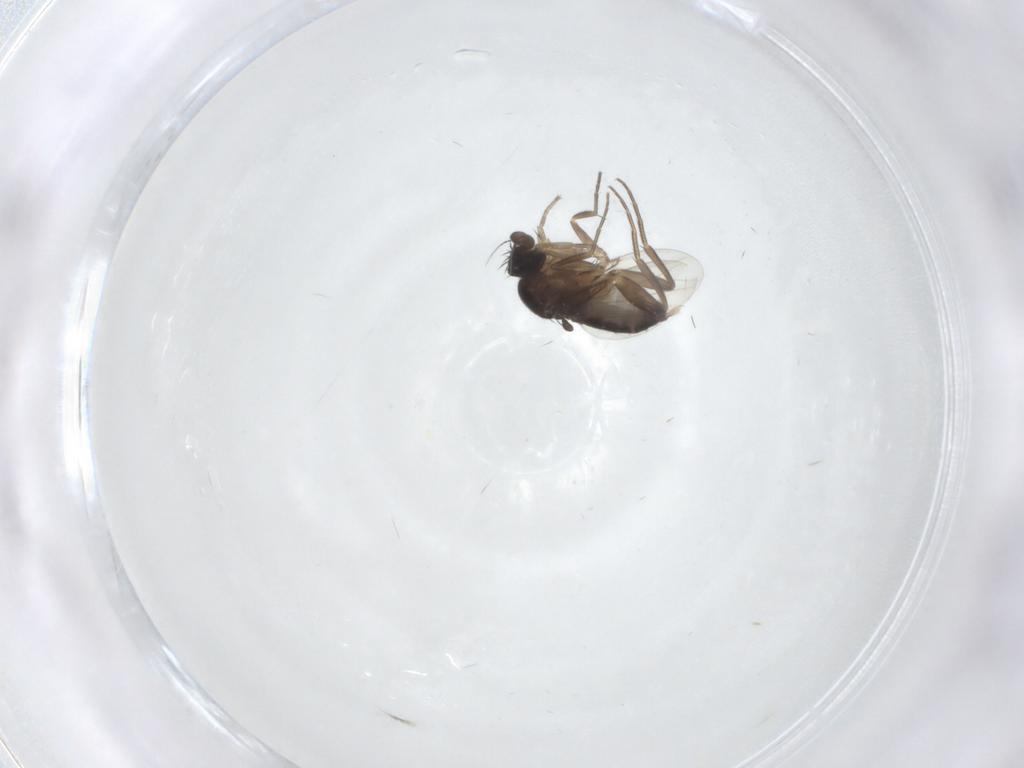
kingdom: Animalia
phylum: Arthropoda
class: Insecta
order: Diptera
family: Phoridae
